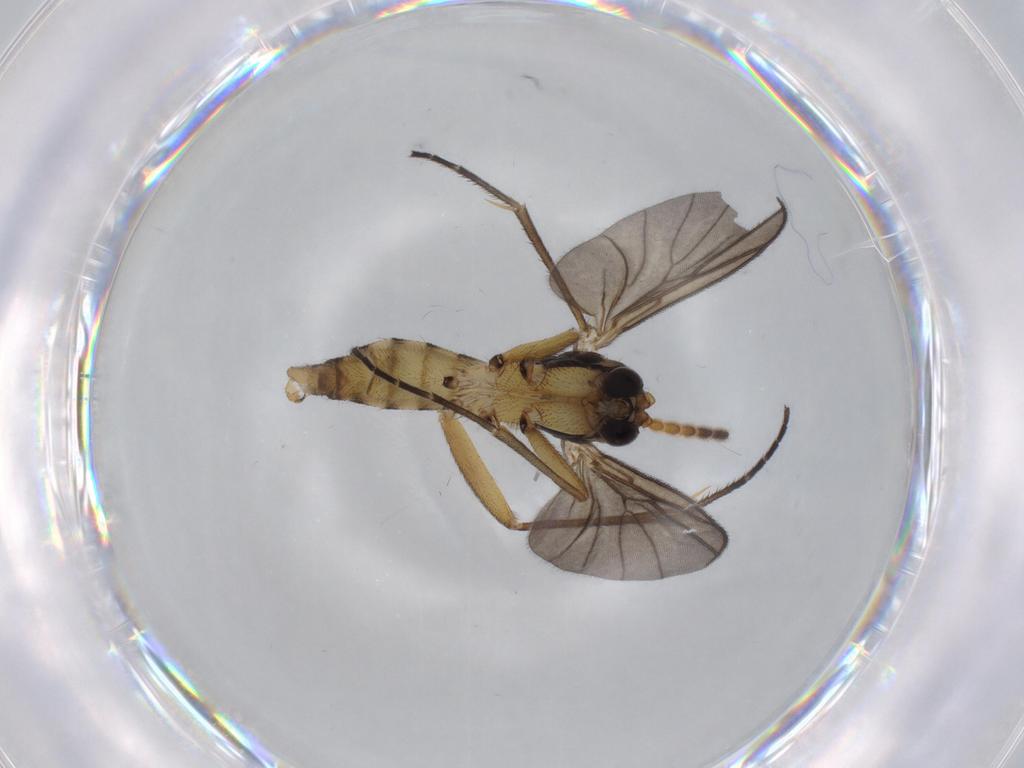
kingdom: Animalia
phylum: Arthropoda
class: Insecta
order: Diptera
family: Cecidomyiidae
